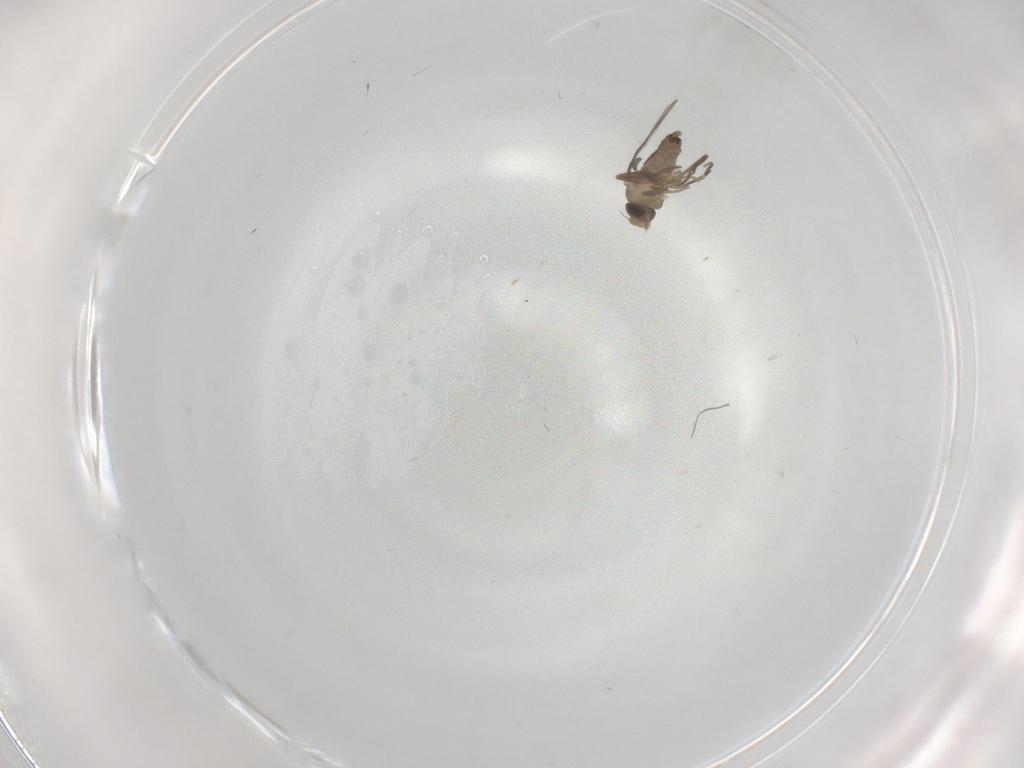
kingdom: Animalia
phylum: Arthropoda
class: Insecta
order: Diptera
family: Cecidomyiidae
